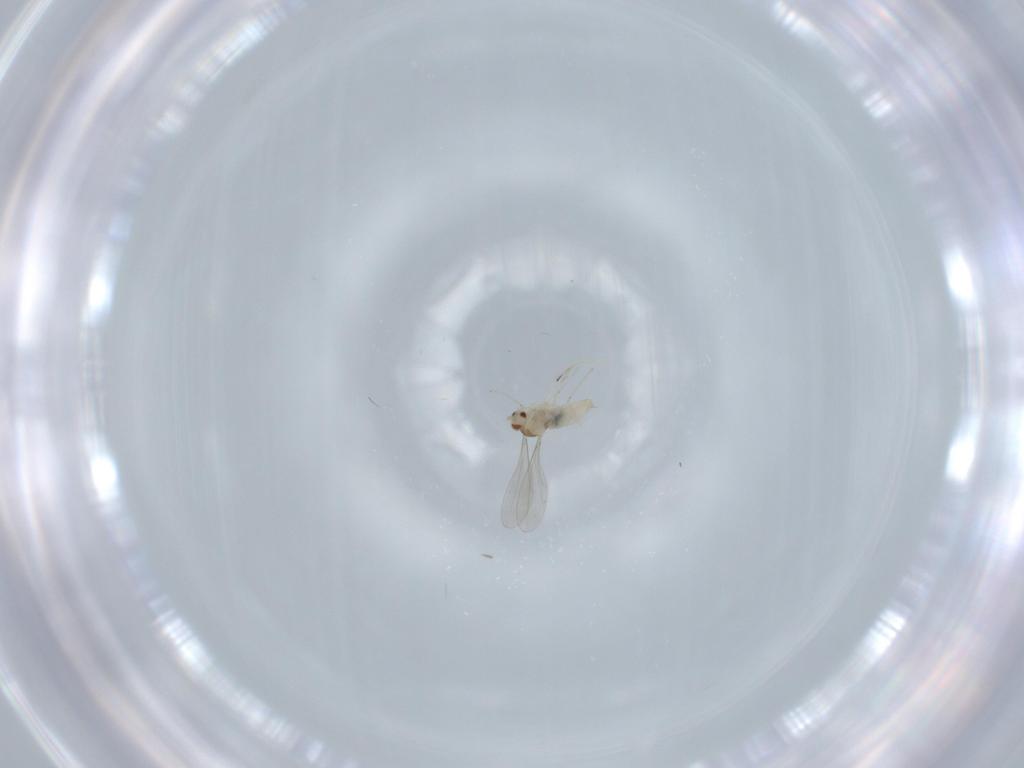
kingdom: Animalia
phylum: Arthropoda
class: Insecta
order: Diptera
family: Cecidomyiidae
